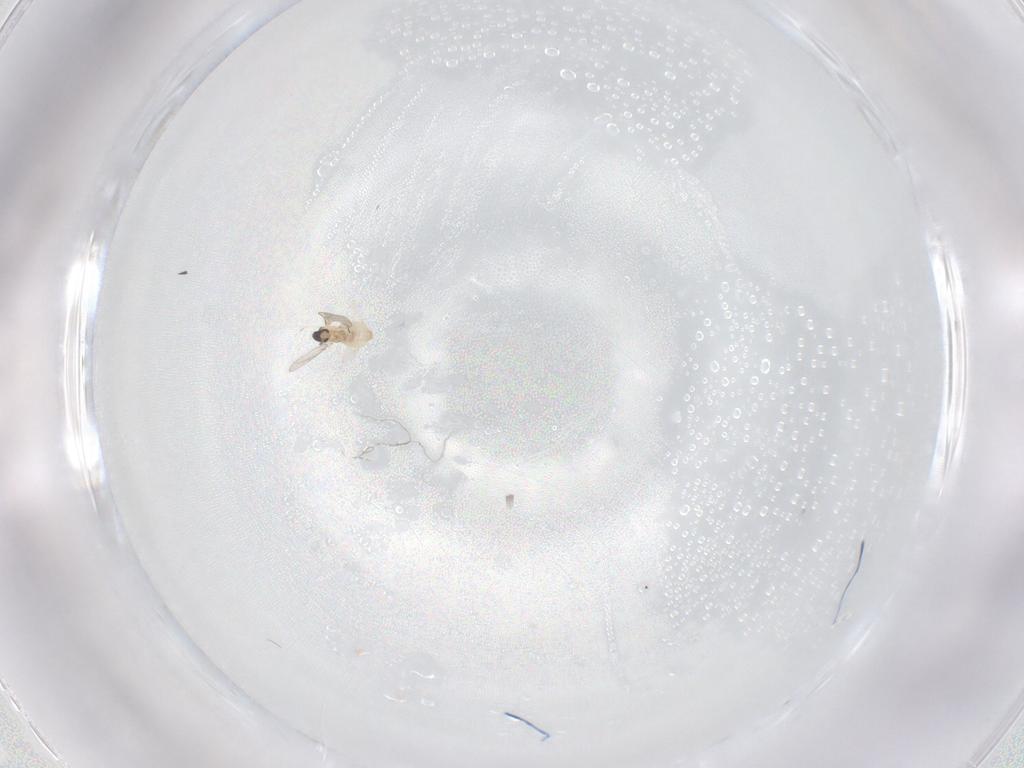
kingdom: Animalia
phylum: Arthropoda
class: Insecta
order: Diptera
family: Cecidomyiidae
